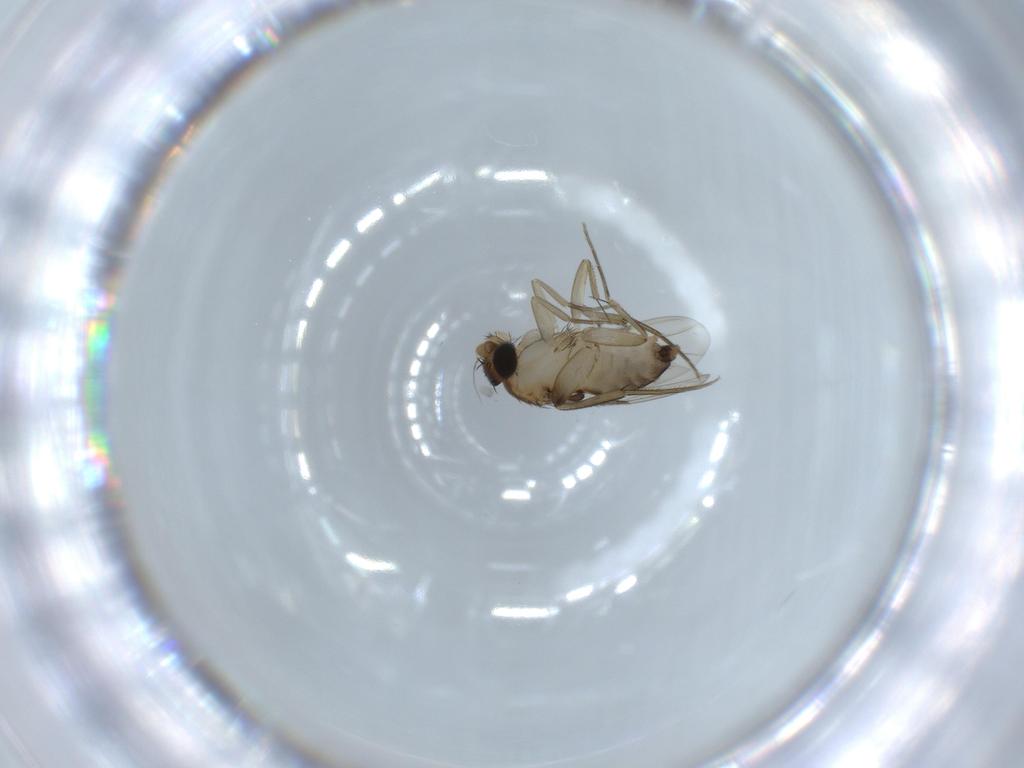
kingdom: Animalia
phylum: Arthropoda
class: Insecta
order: Diptera
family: Phoridae
